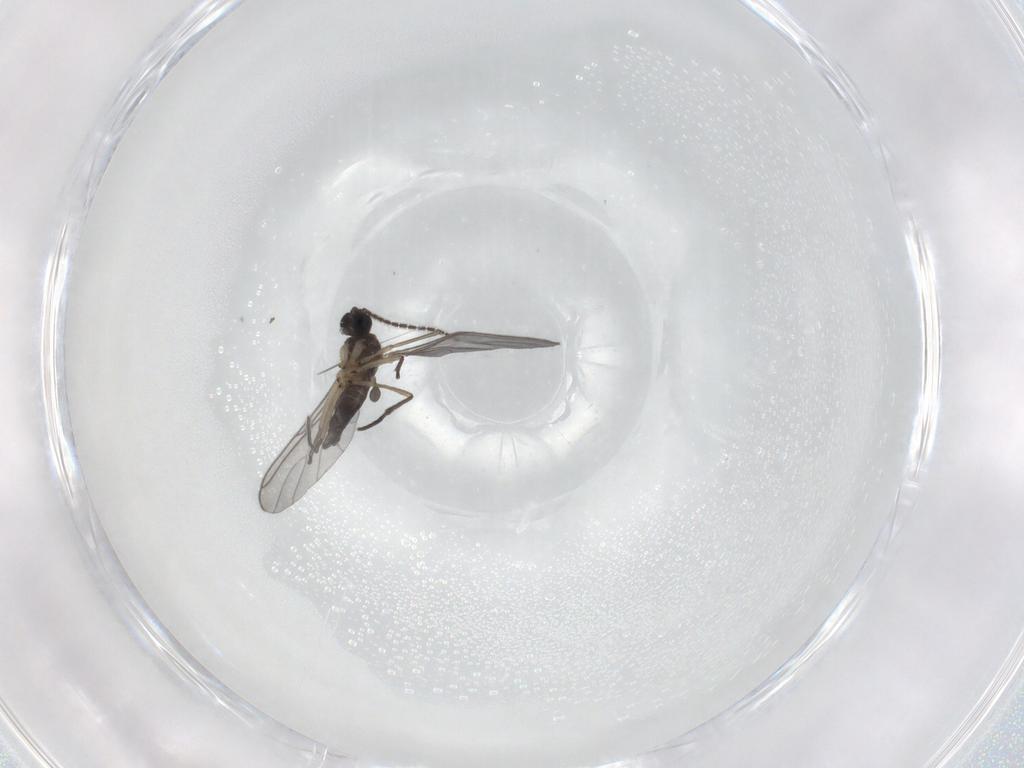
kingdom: Animalia
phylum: Arthropoda
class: Insecta
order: Diptera
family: Sciaridae
